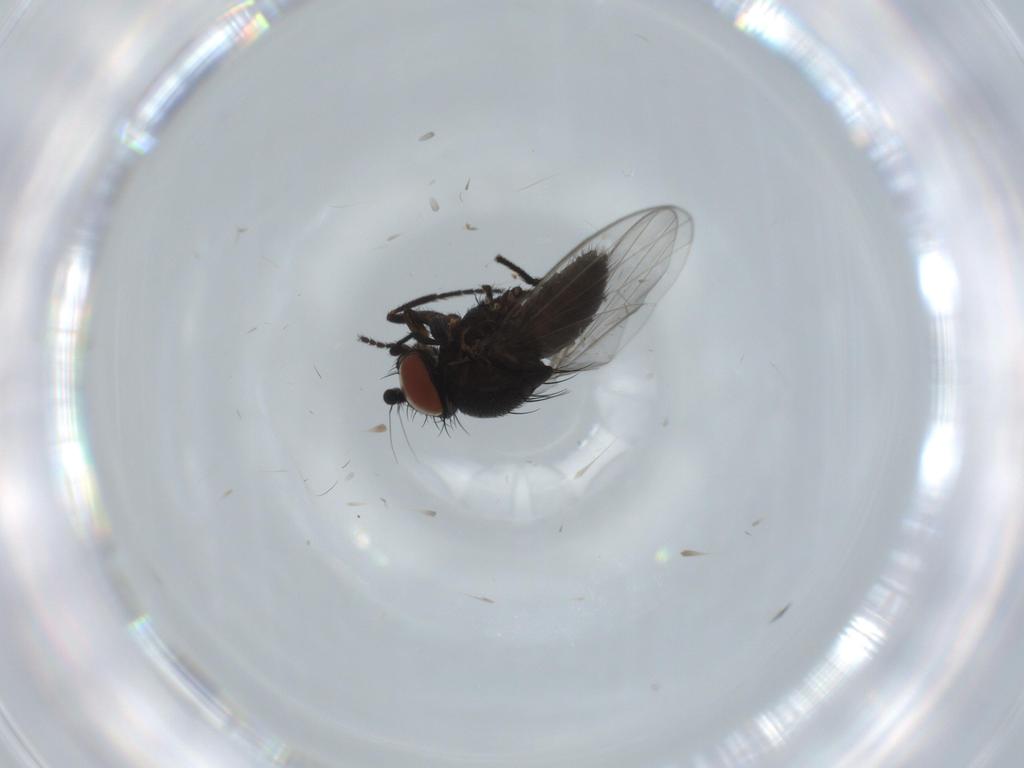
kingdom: Animalia
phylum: Arthropoda
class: Insecta
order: Diptera
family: Milichiidae
